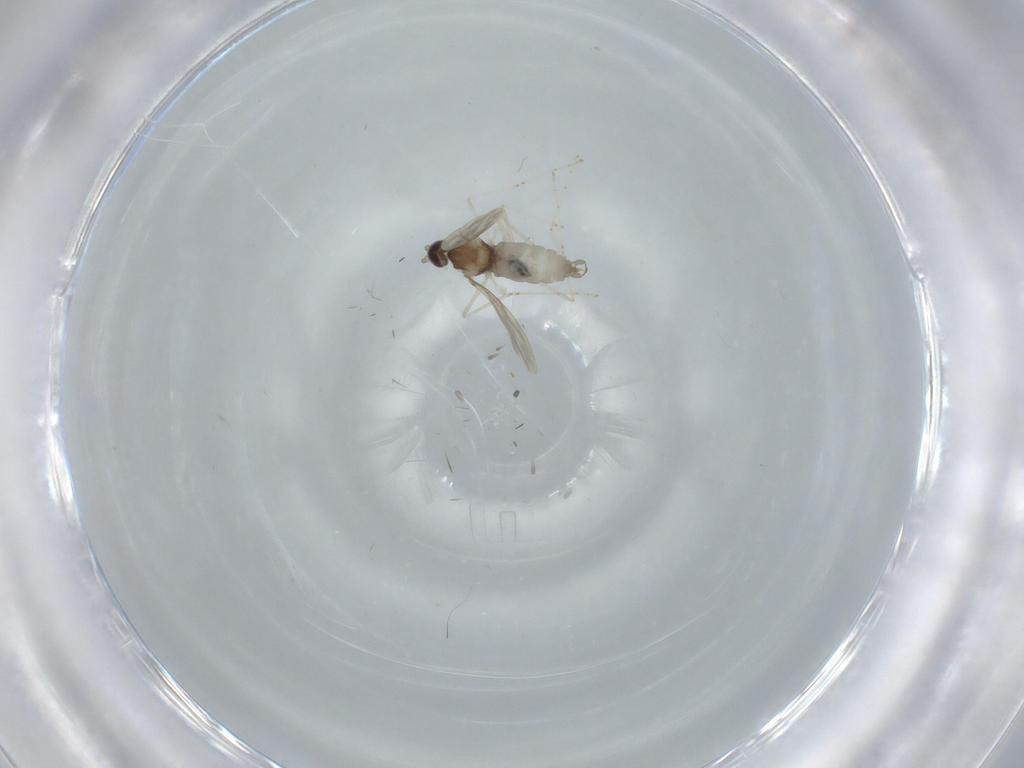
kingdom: Animalia
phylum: Arthropoda
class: Insecta
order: Diptera
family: Cecidomyiidae
